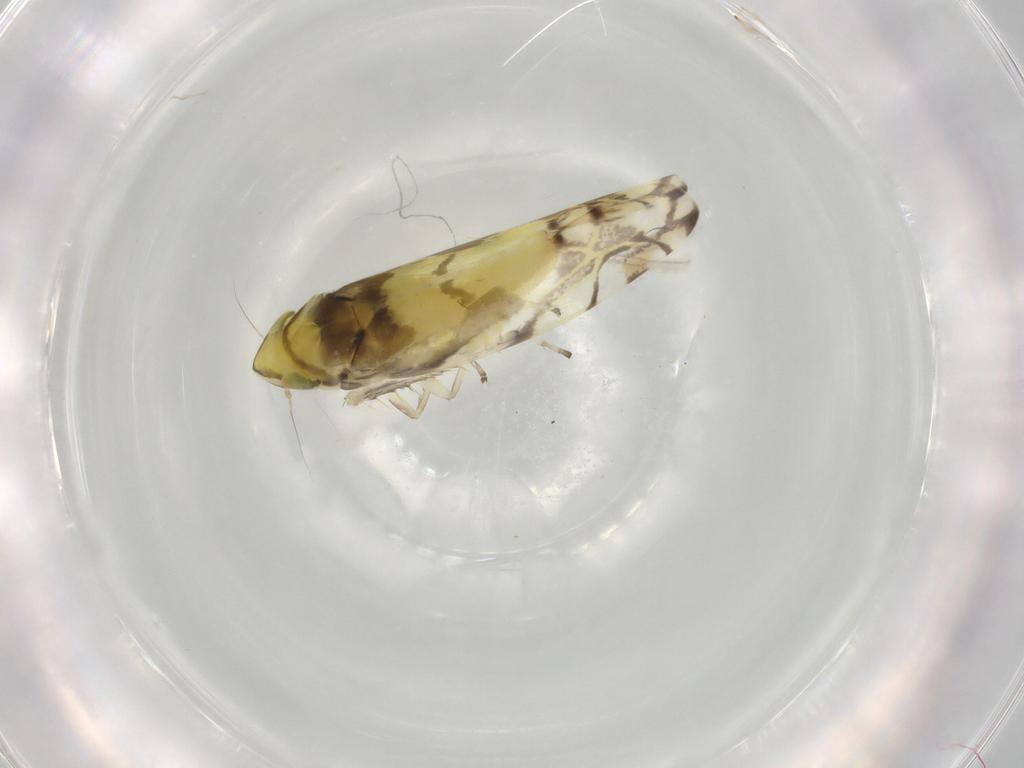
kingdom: Animalia
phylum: Arthropoda
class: Insecta
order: Hemiptera
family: Cicadellidae
